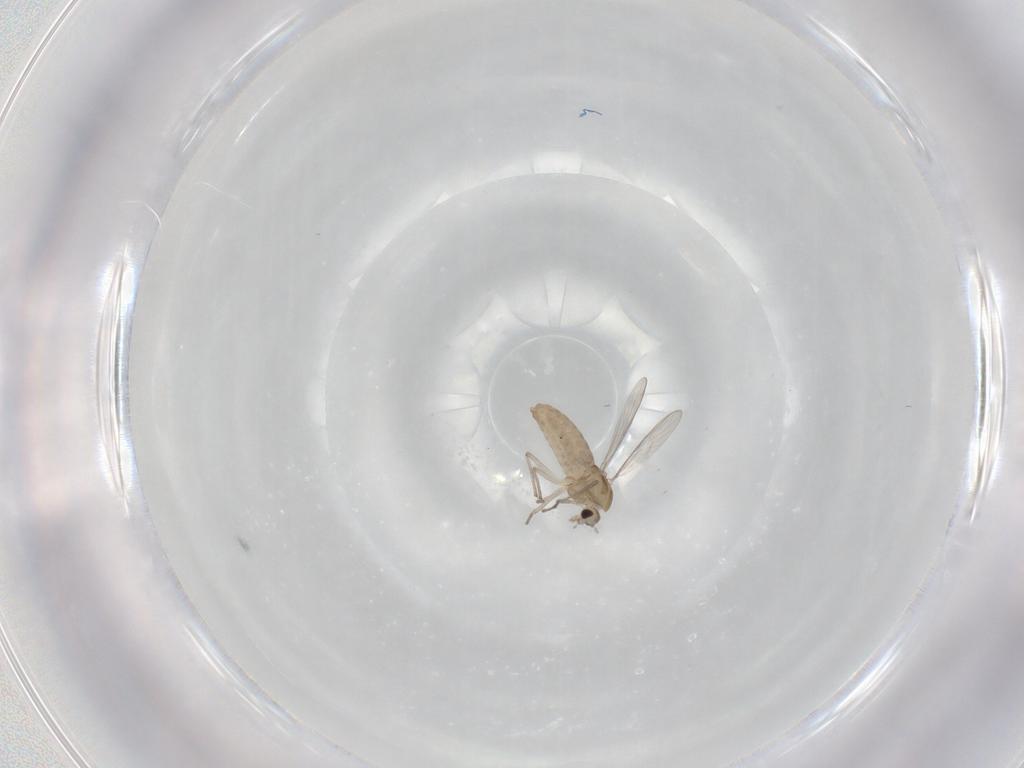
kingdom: Animalia
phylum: Arthropoda
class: Insecta
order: Diptera
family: Chironomidae
